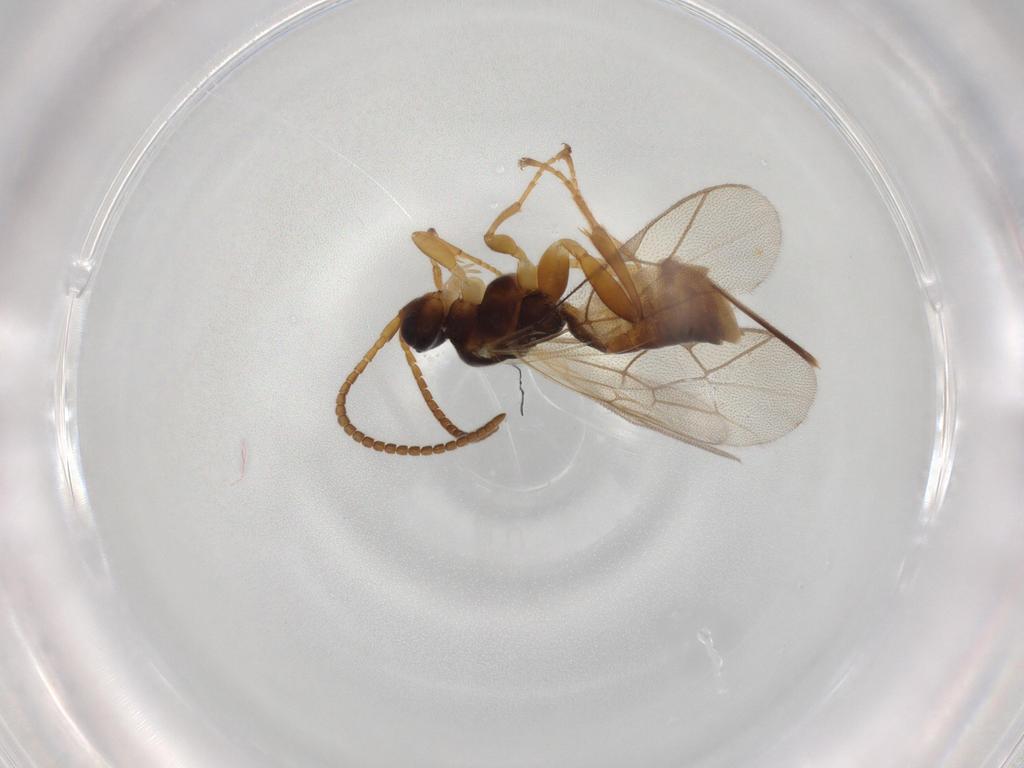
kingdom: Animalia
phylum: Arthropoda
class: Insecta
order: Hymenoptera
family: Ichneumonidae
